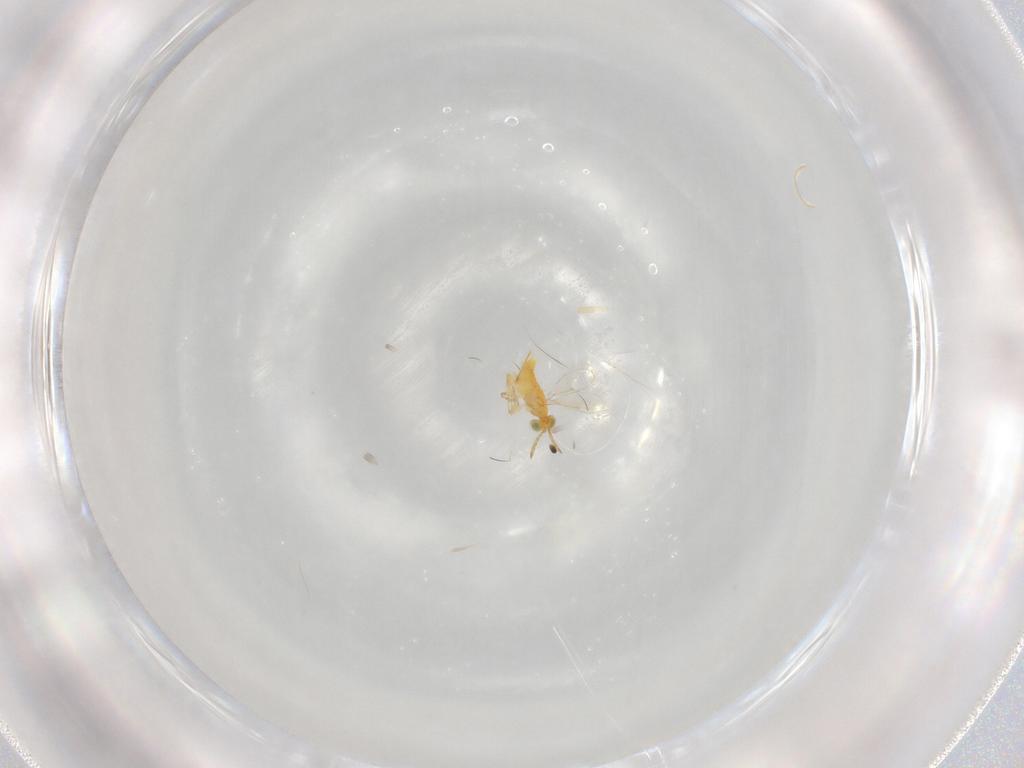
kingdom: Animalia
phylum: Arthropoda
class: Insecta
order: Hymenoptera
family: Aphelinidae
